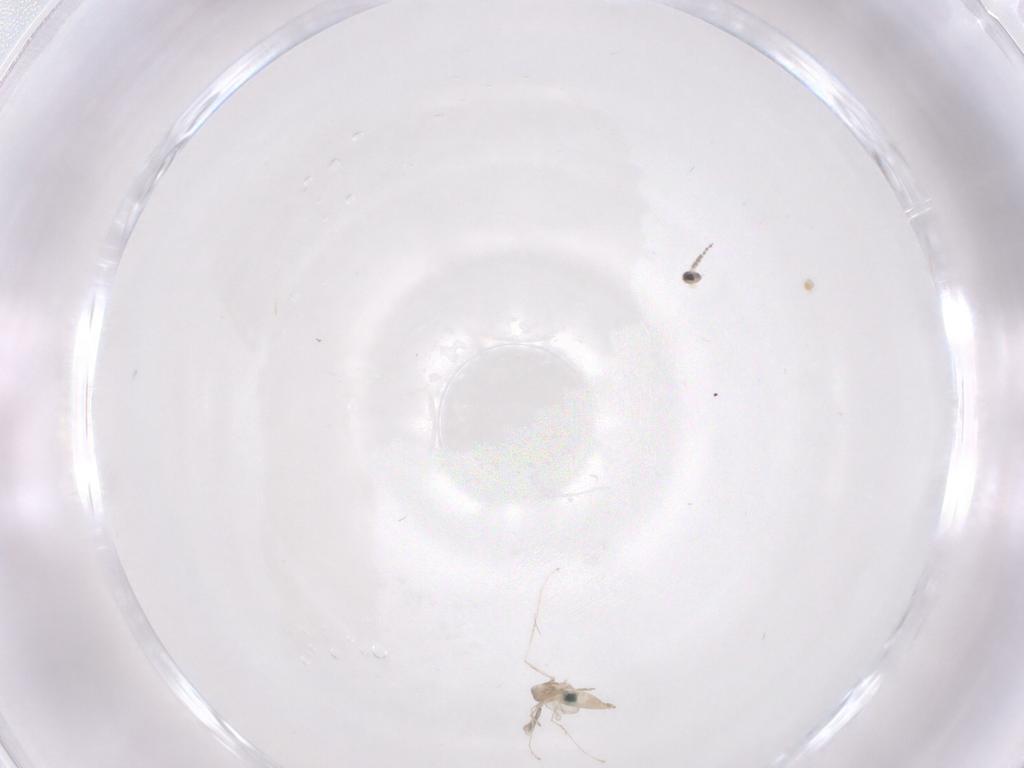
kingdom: Animalia
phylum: Arthropoda
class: Insecta
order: Diptera
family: Cecidomyiidae
